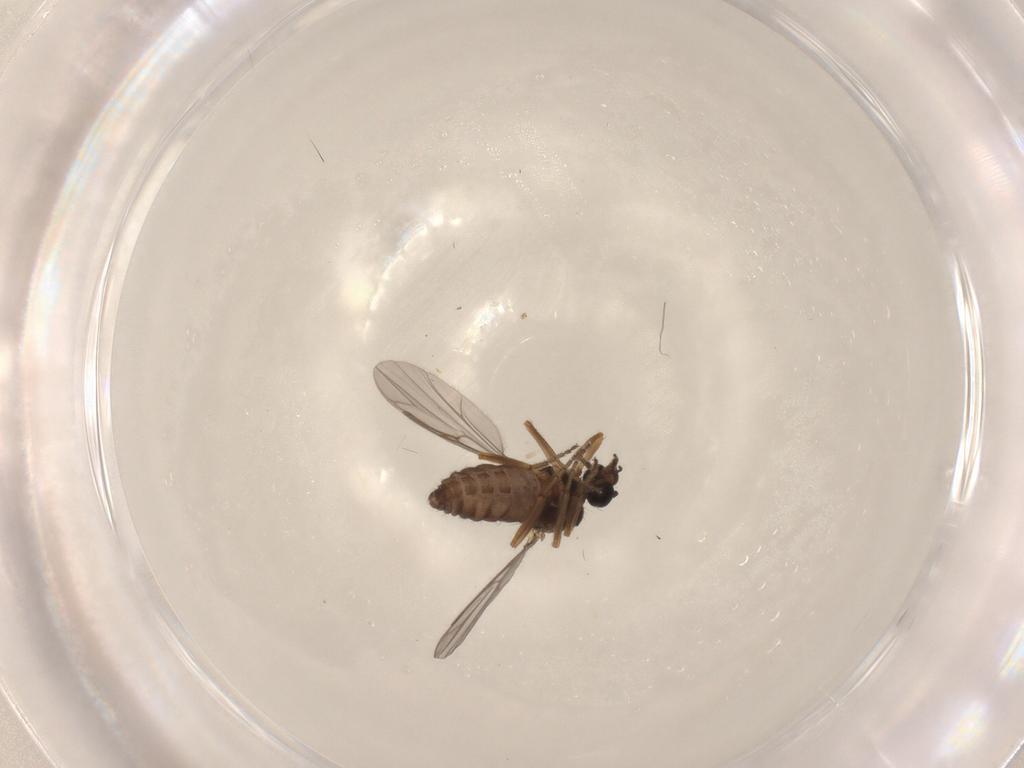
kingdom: Animalia
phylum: Arthropoda
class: Insecta
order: Diptera
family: Ceratopogonidae
